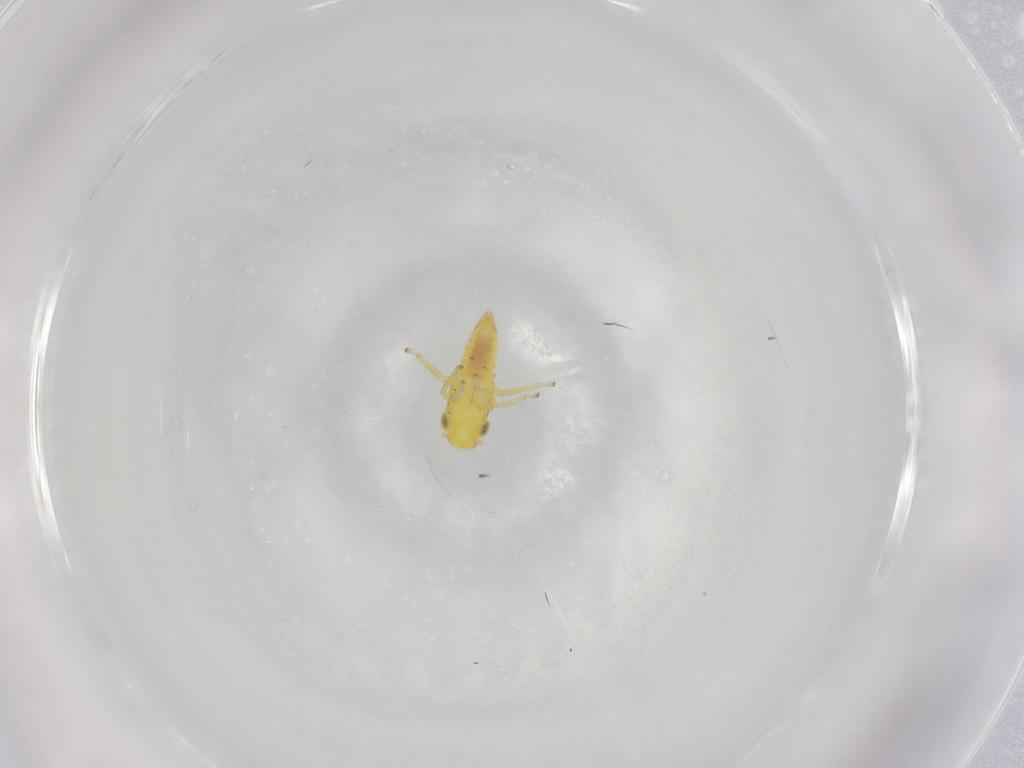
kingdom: Animalia
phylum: Arthropoda
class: Insecta
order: Hemiptera
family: Cicadellidae
